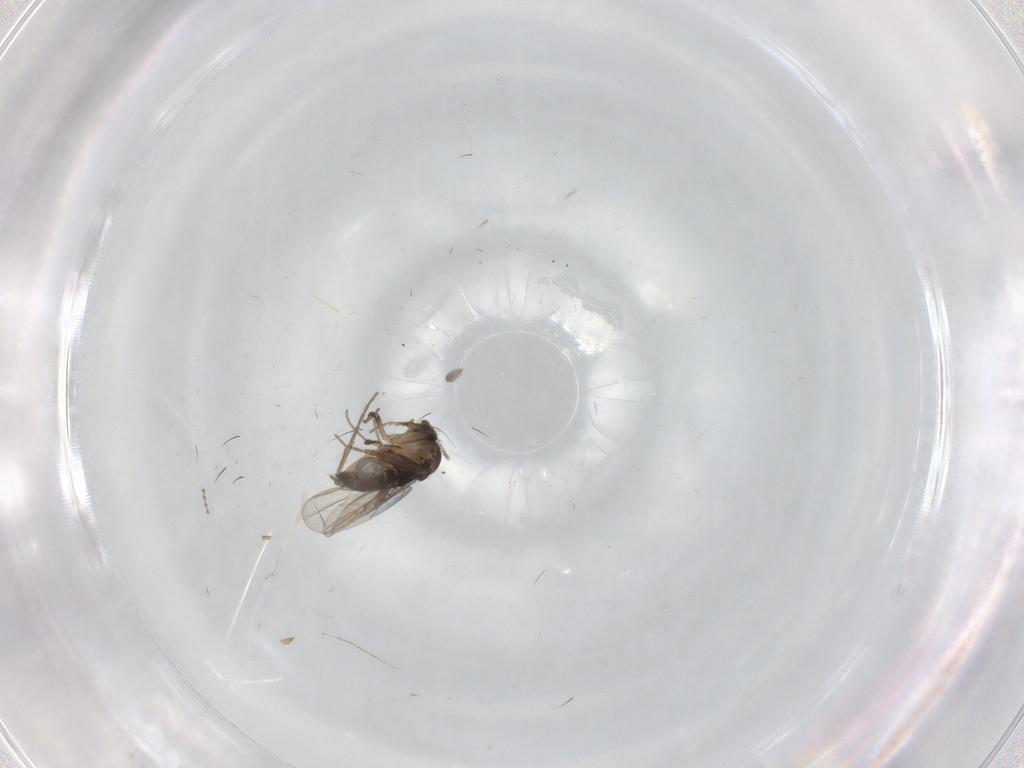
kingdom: Animalia
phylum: Arthropoda
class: Insecta
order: Diptera
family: Phoridae
